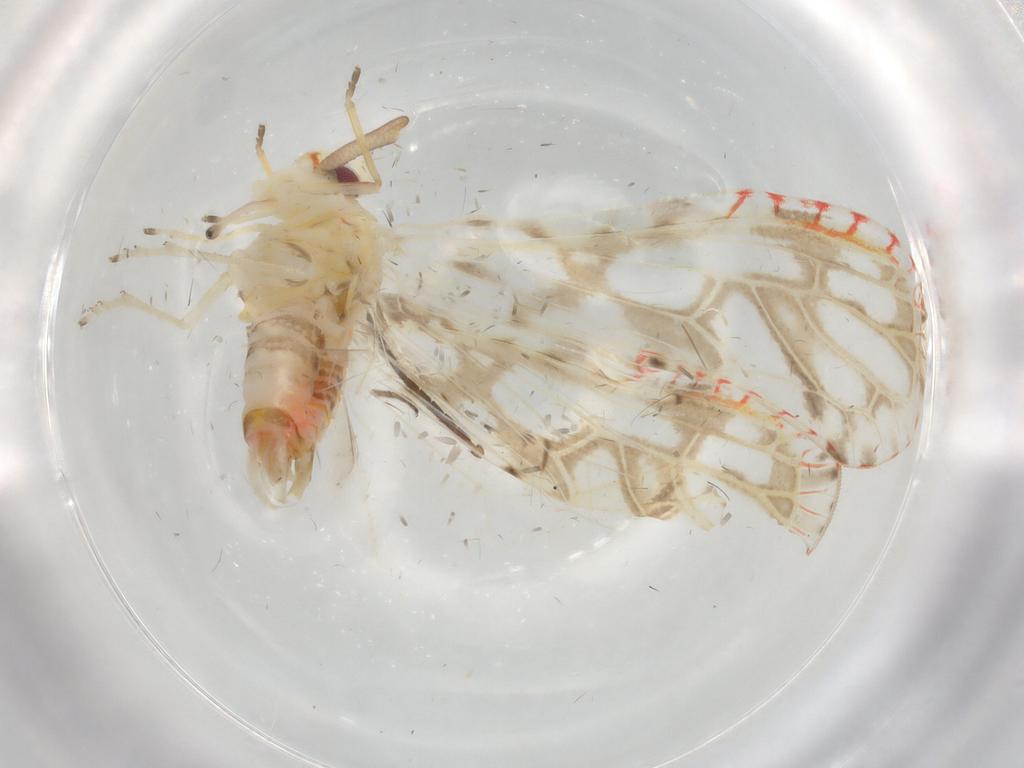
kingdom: Animalia
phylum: Arthropoda
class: Insecta
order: Hemiptera
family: Derbidae
